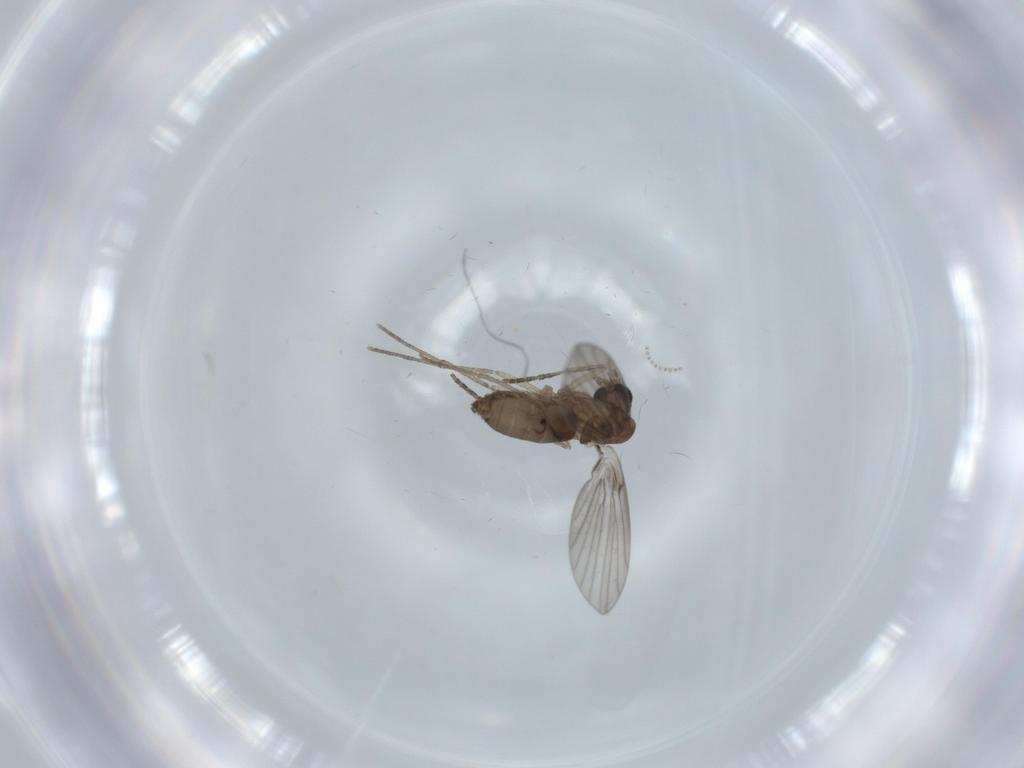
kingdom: Animalia
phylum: Arthropoda
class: Insecta
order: Diptera
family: Cecidomyiidae
